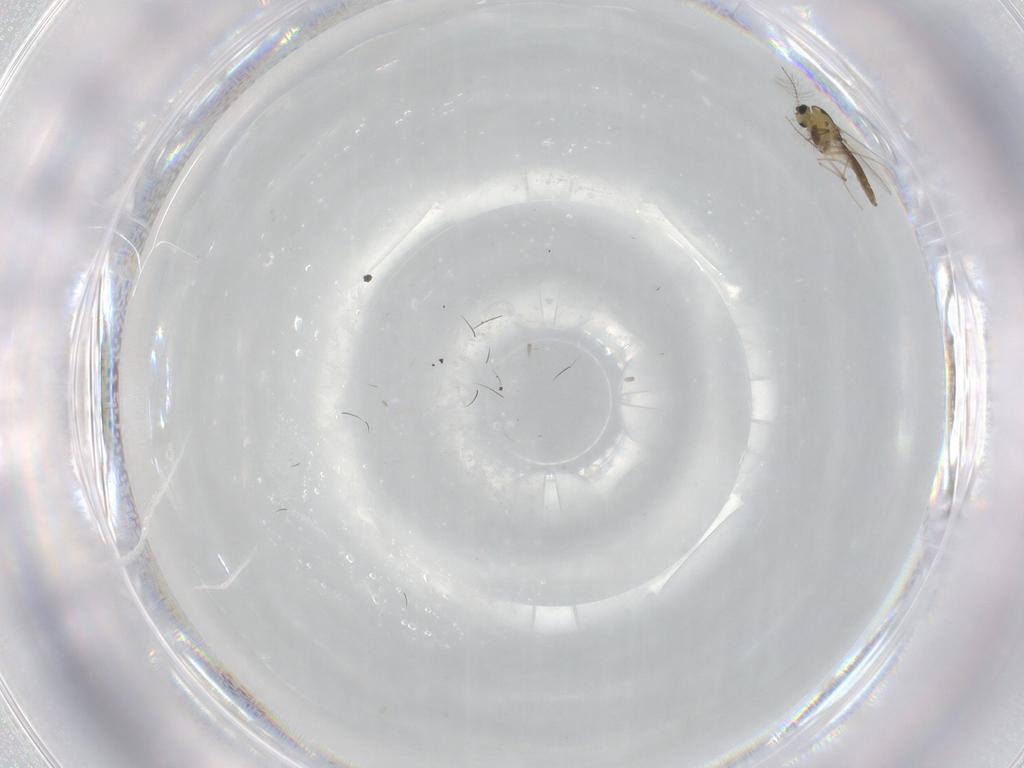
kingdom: Animalia
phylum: Arthropoda
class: Insecta
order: Diptera
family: Chironomidae
